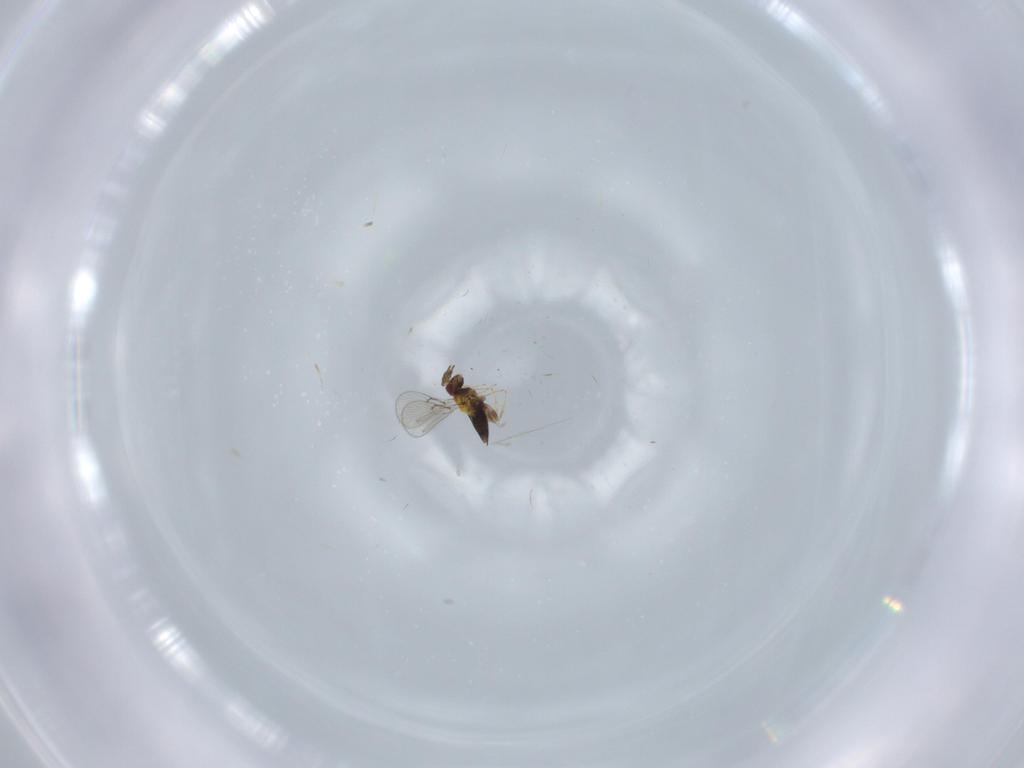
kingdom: Animalia
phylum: Arthropoda
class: Insecta
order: Hymenoptera
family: Trichogrammatidae
